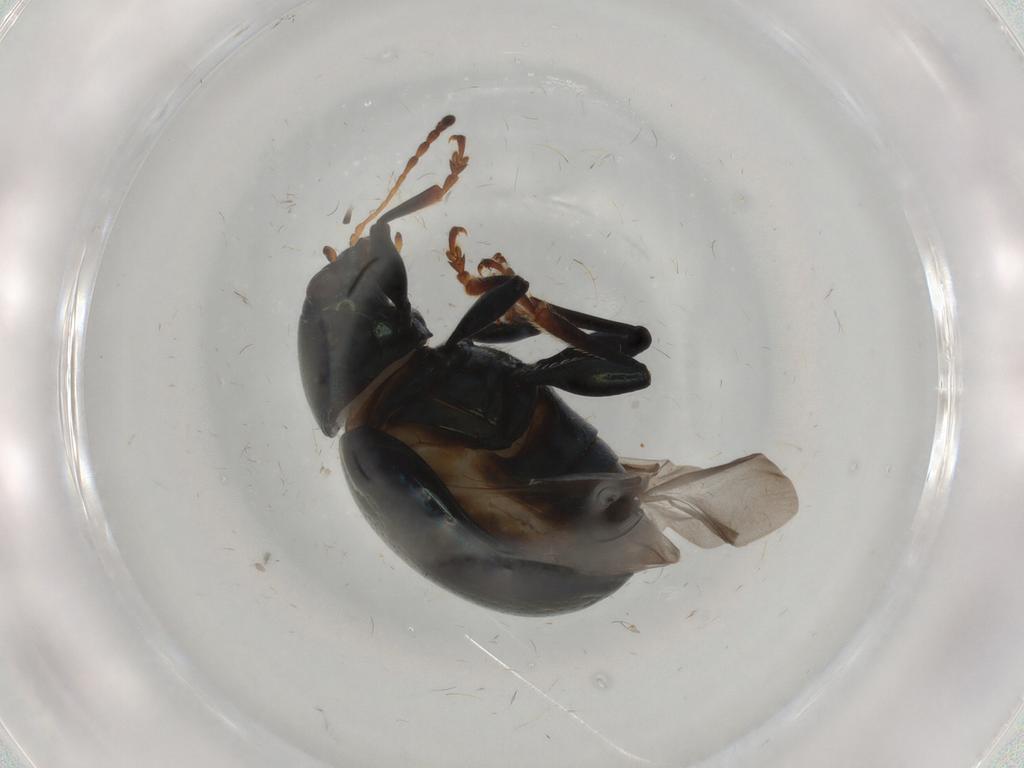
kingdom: Animalia
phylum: Arthropoda
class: Insecta
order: Coleoptera
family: Chrysomelidae
